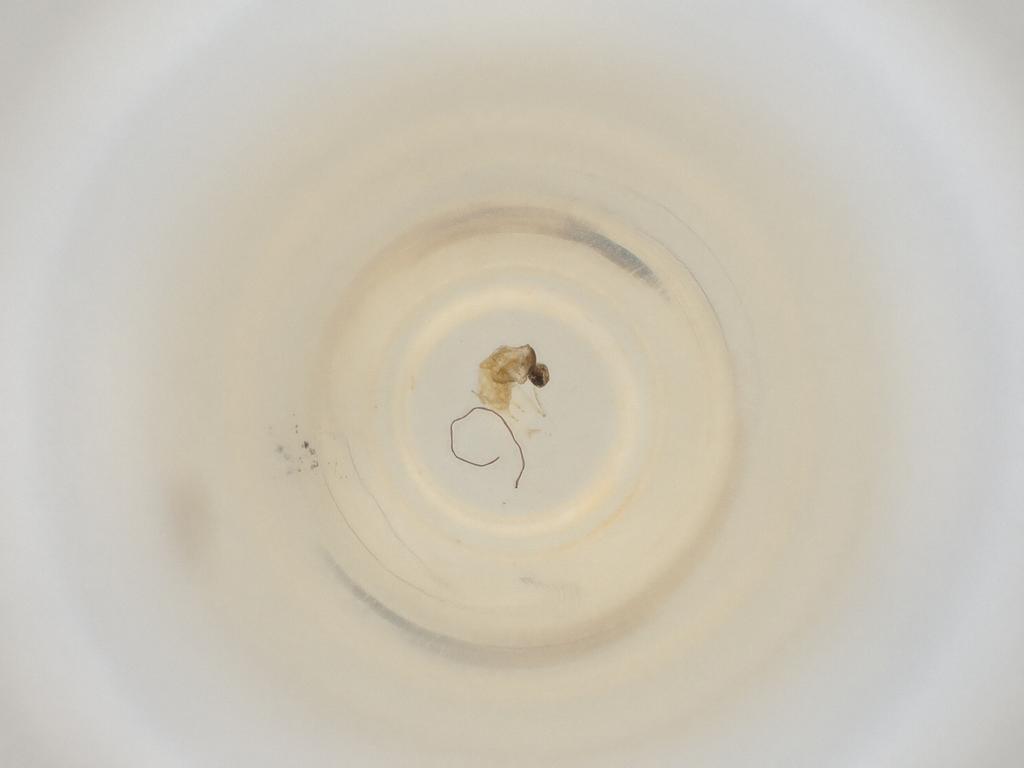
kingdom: Animalia
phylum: Arthropoda
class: Insecta
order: Diptera
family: Cecidomyiidae
